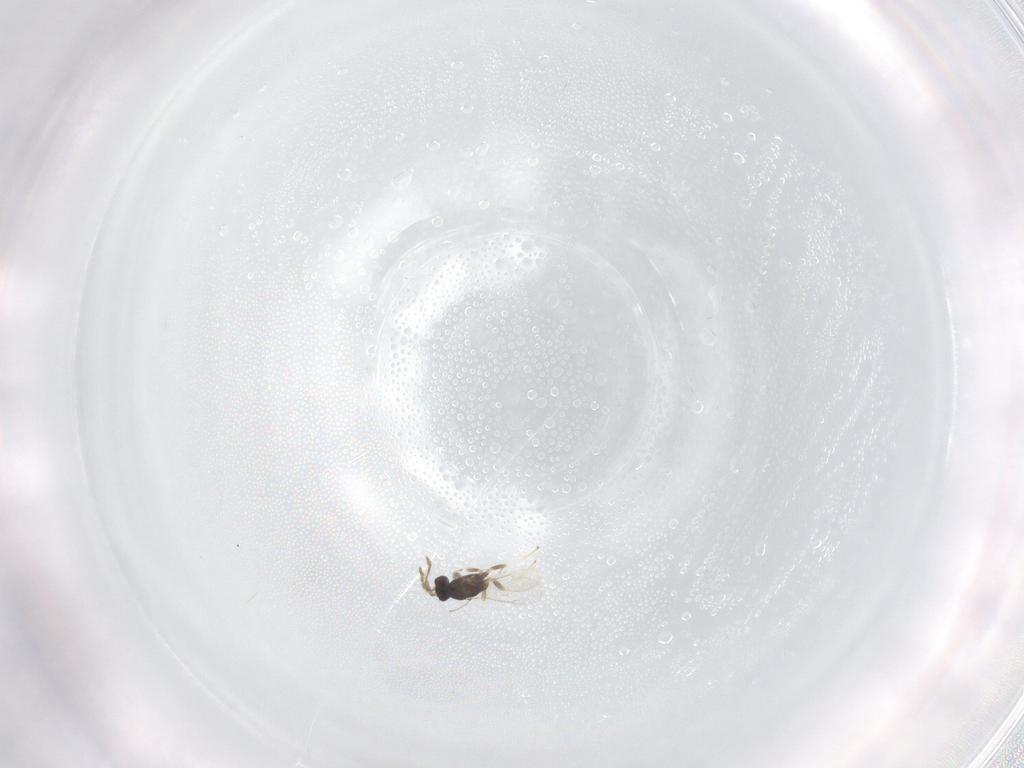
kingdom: Animalia
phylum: Arthropoda
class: Insecta
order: Hymenoptera
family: Eulophidae
